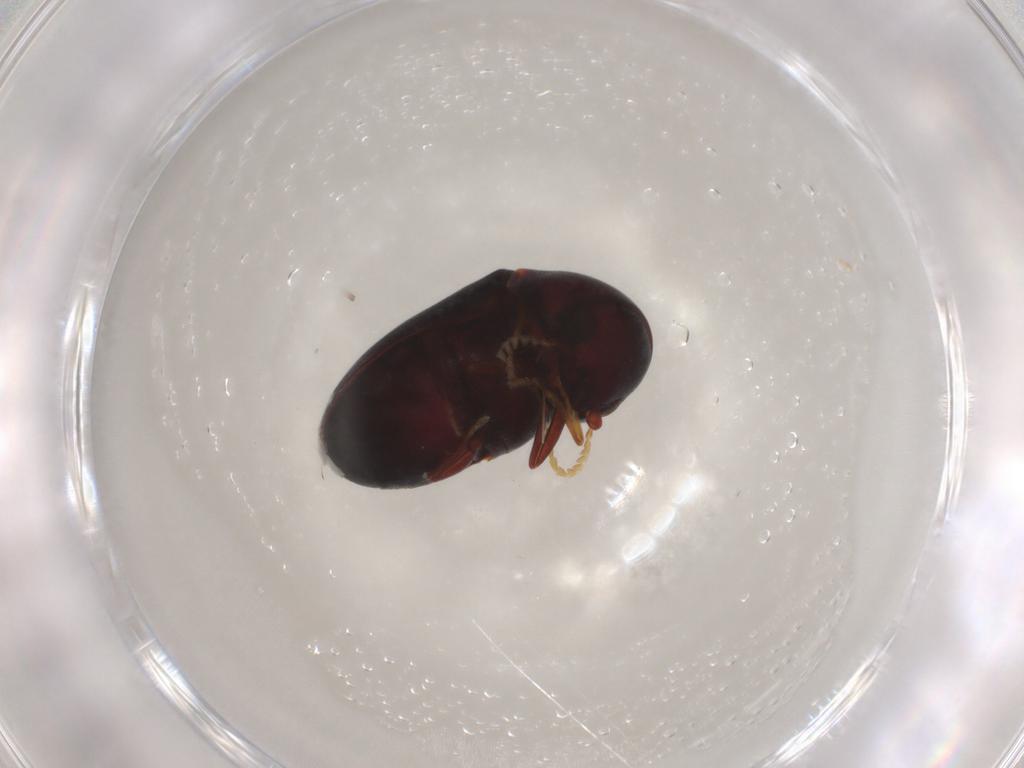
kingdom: Animalia
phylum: Arthropoda
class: Insecta
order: Coleoptera
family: Ptinidae
